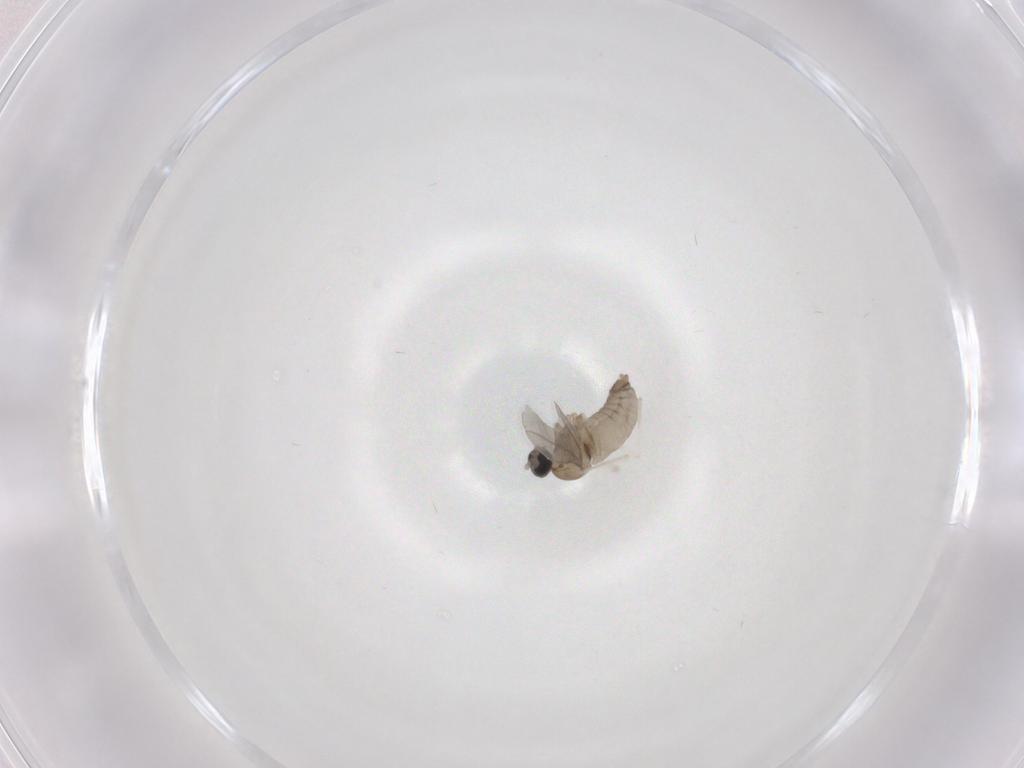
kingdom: Animalia
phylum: Arthropoda
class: Insecta
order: Diptera
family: Cecidomyiidae
